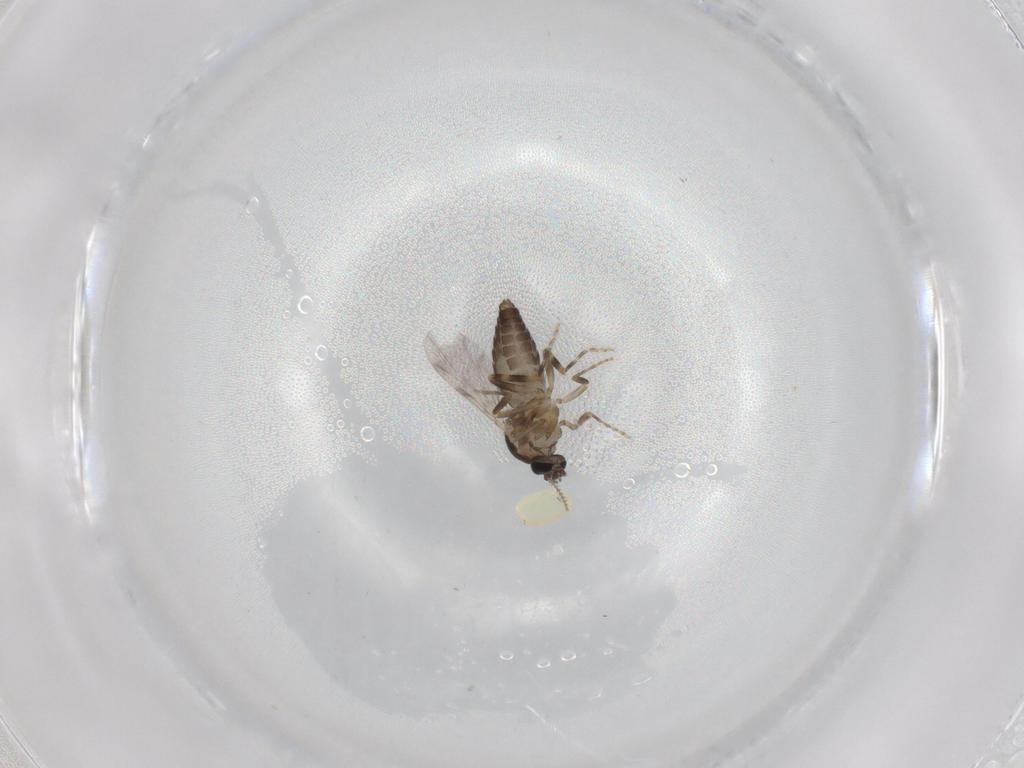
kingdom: Animalia
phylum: Arthropoda
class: Insecta
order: Diptera
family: Ceratopogonidae
